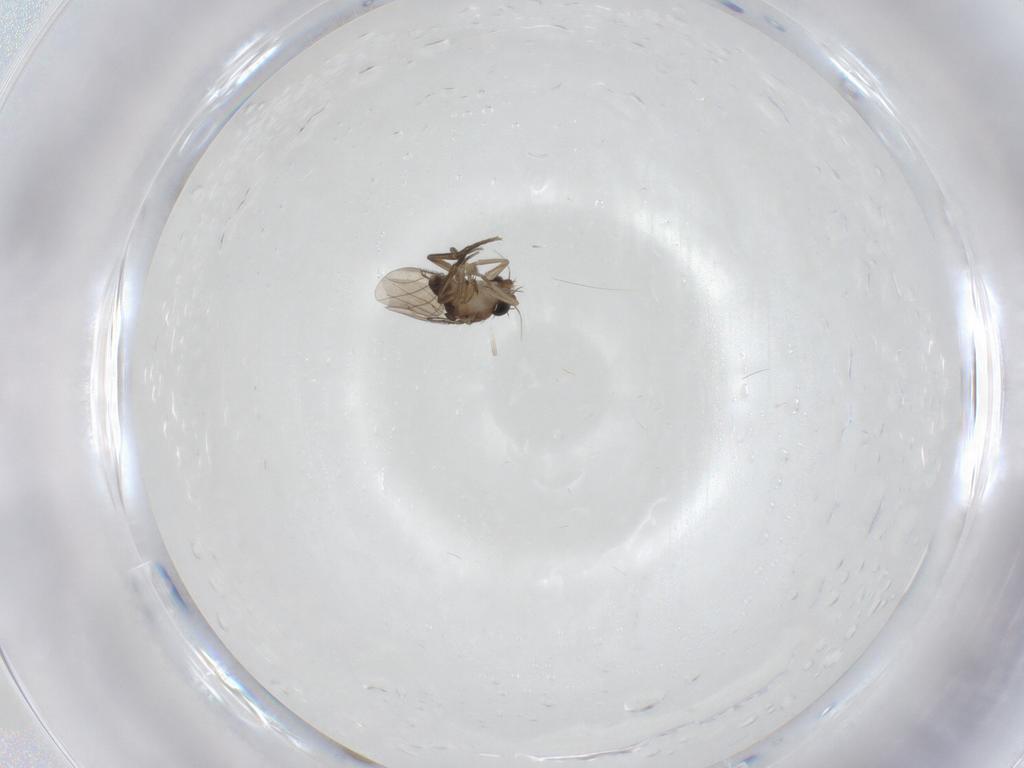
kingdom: Animalia
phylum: Arthropoda
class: Insecta
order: Diptera
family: Limoniidae
